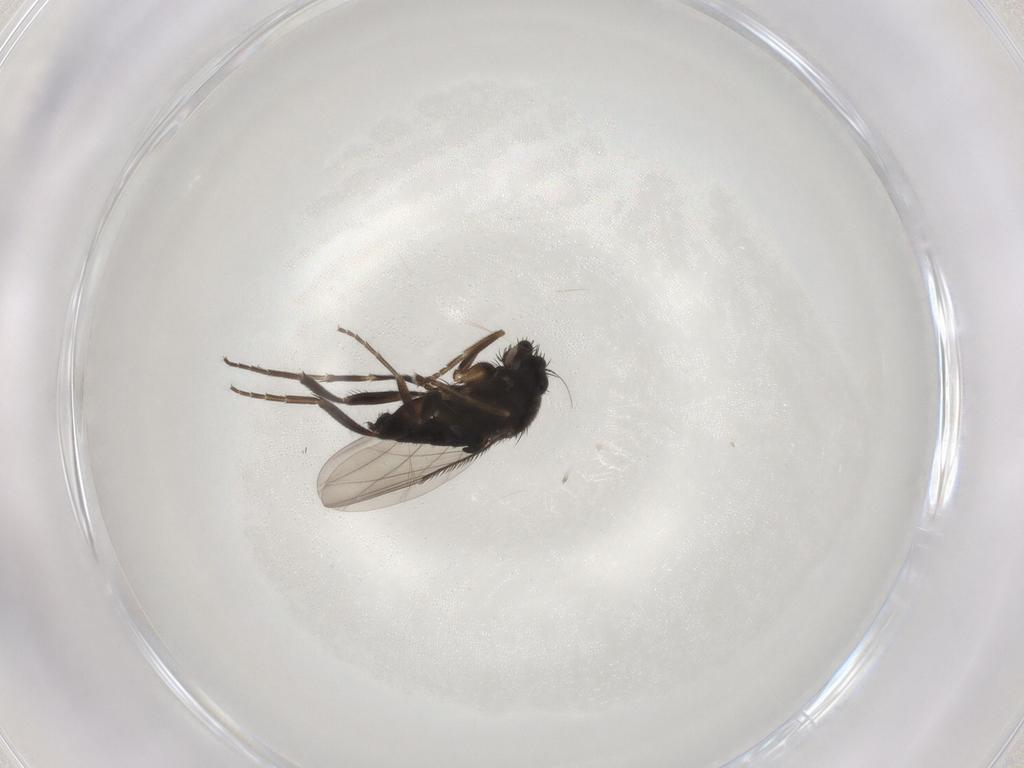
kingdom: Animalia
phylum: Arthropoda
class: Insecta
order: Diptera
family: Phoridae
